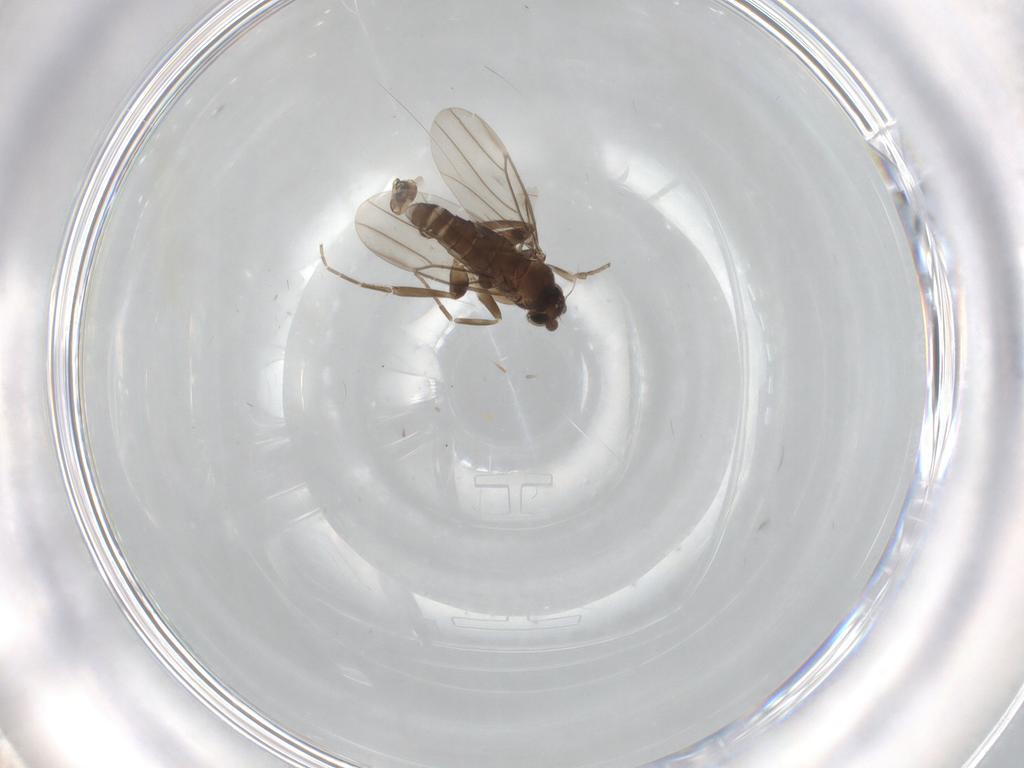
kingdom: Animalia
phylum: Arthropoda
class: Insecta
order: Diptera
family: Phoridae
